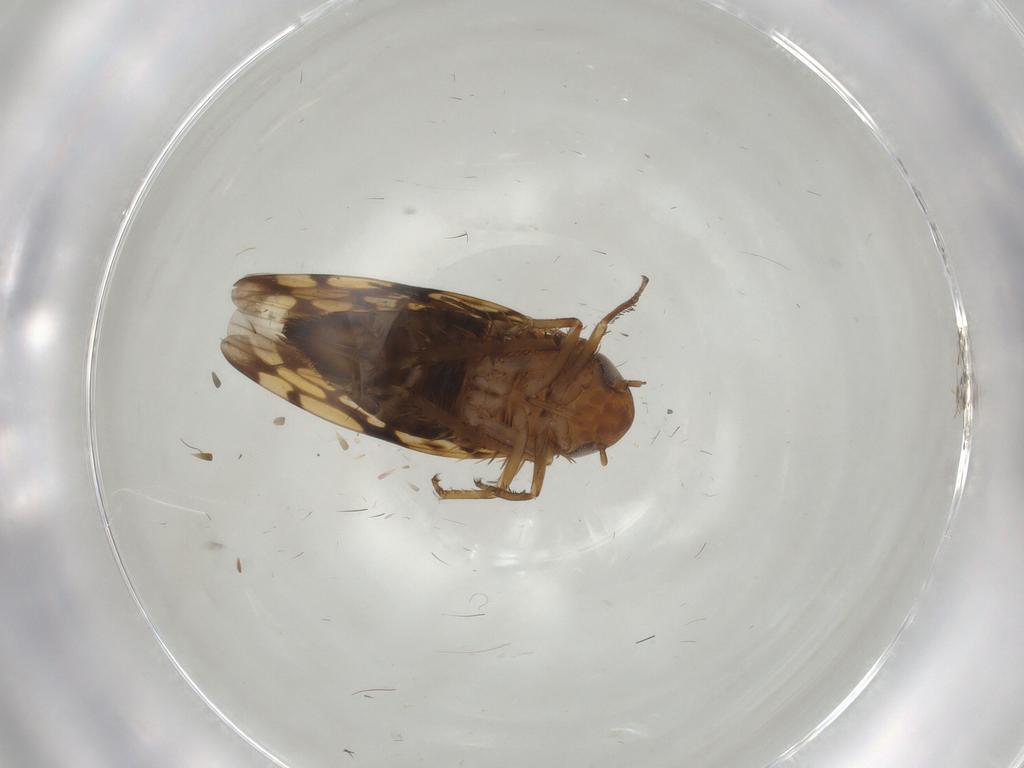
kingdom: Animalia
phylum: Arthropoda
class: Insecta
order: Hemiptera
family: Cicadellidae
